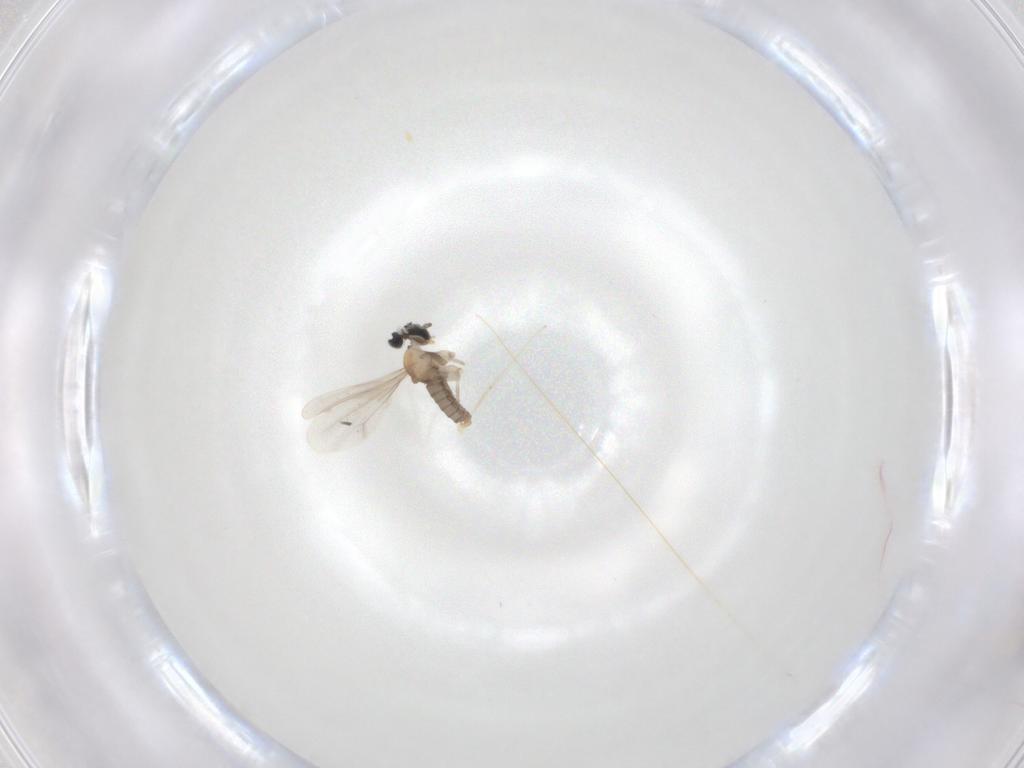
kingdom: Animalia
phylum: Arthropoda
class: Insecta
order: Diptera
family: Cecidomyiidae
